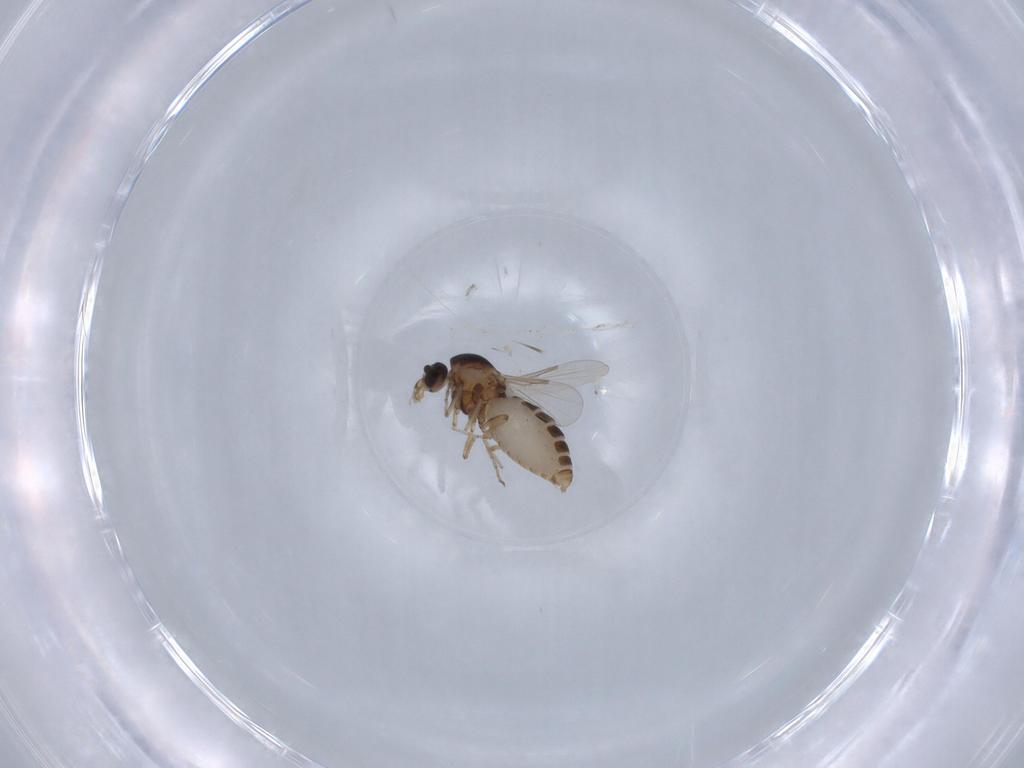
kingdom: Animalia
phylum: Arthropoda
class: Insecta
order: Diptera
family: Ceratopogonidae
